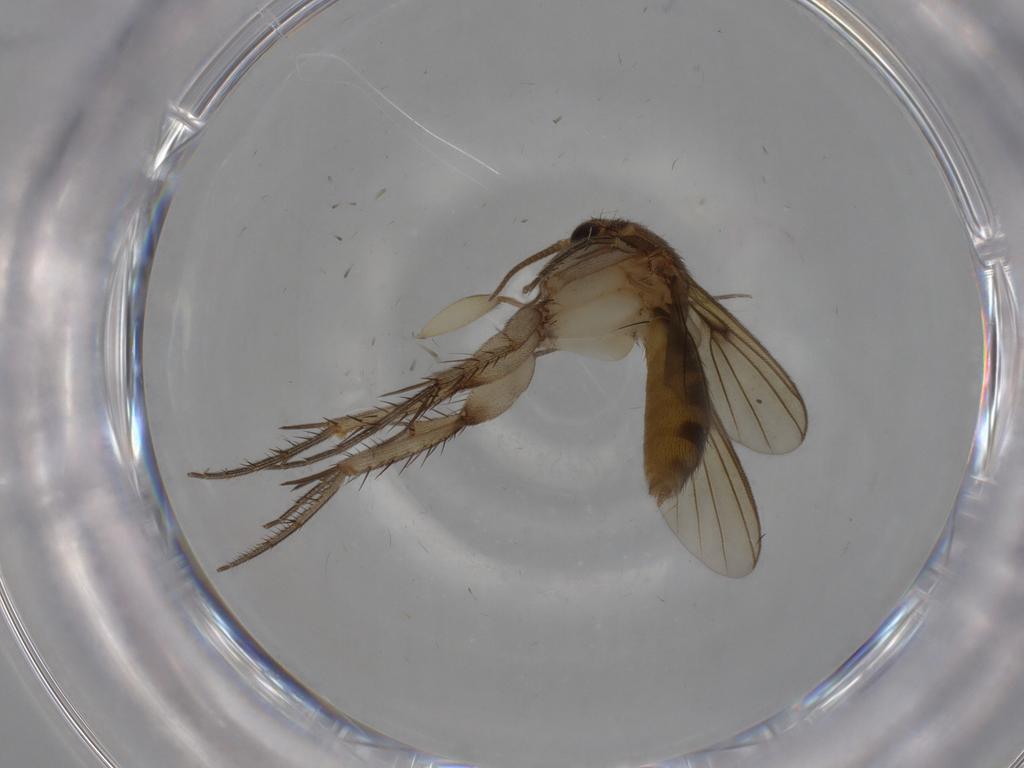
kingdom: Animalia
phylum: Arthropoda
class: Insecta
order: Diptera
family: Mycetophilidae
